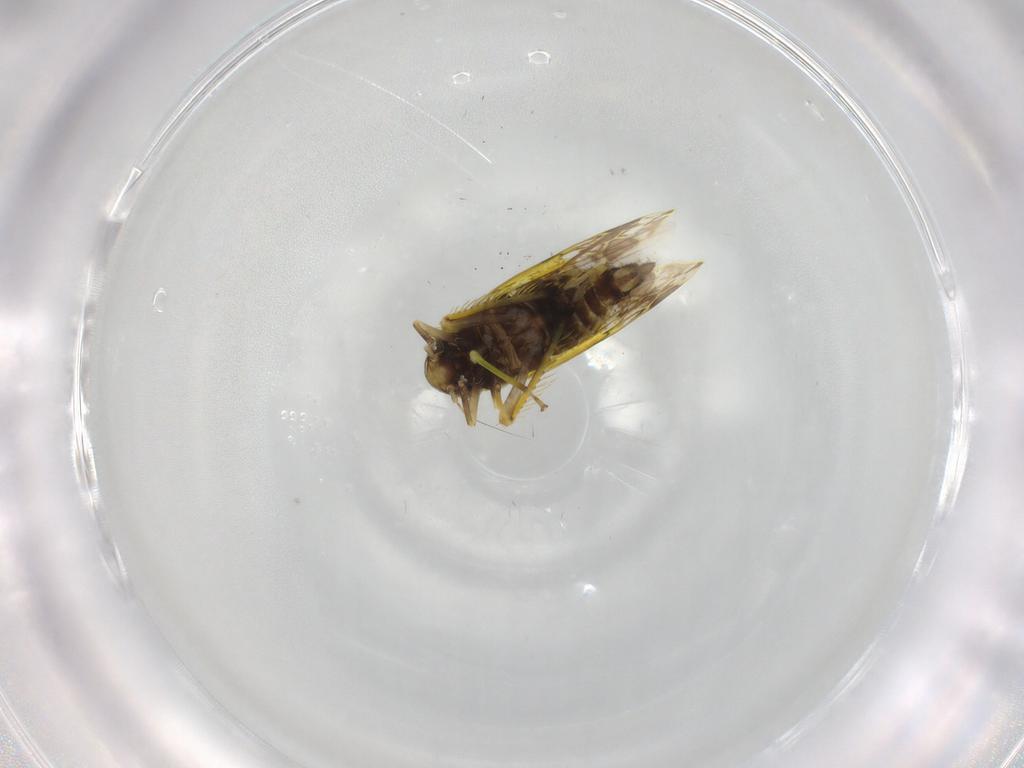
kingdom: Animalia
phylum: Arthropoda
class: Insecta
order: Hemiptera
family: Cicadellidae
